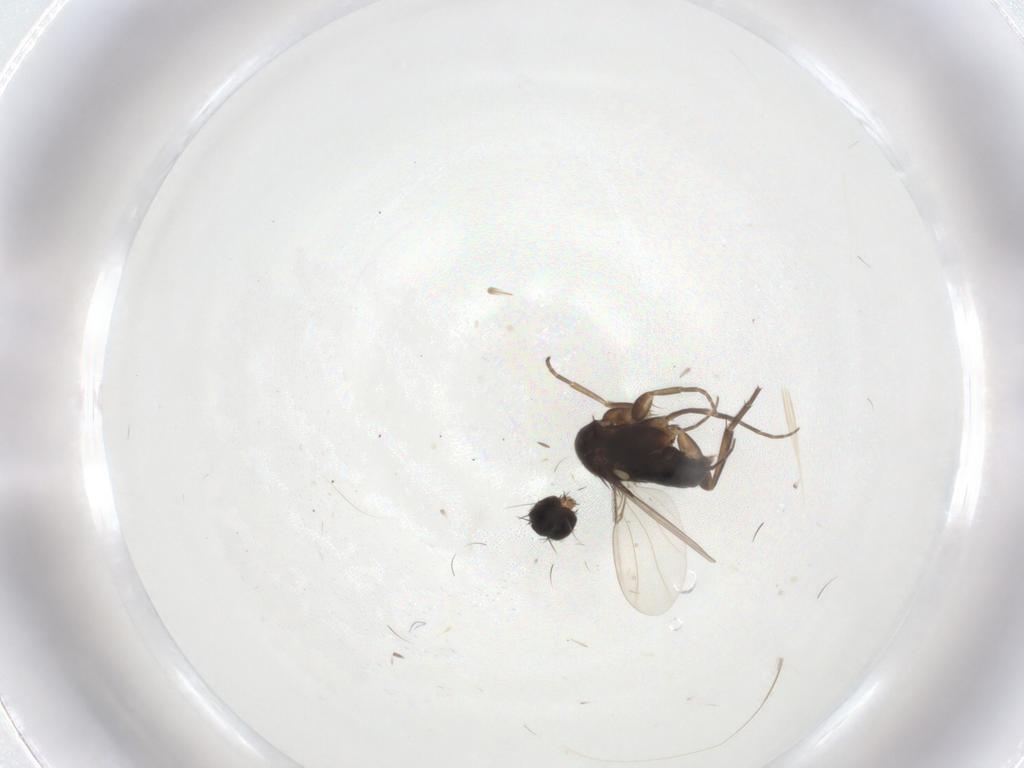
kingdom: Animalia
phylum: Arthropoda
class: Insecta
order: Diptera
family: Phoridae
